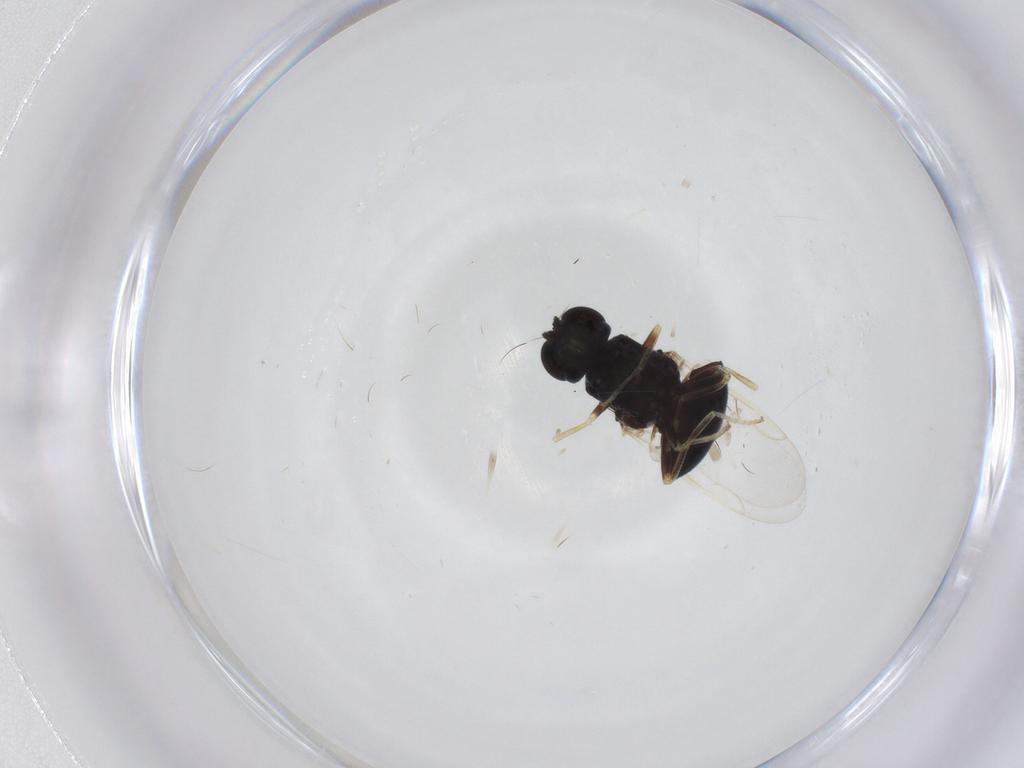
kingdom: Animalia
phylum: Arthropoda
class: Insecta
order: Diptera
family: Stratiomyidae
